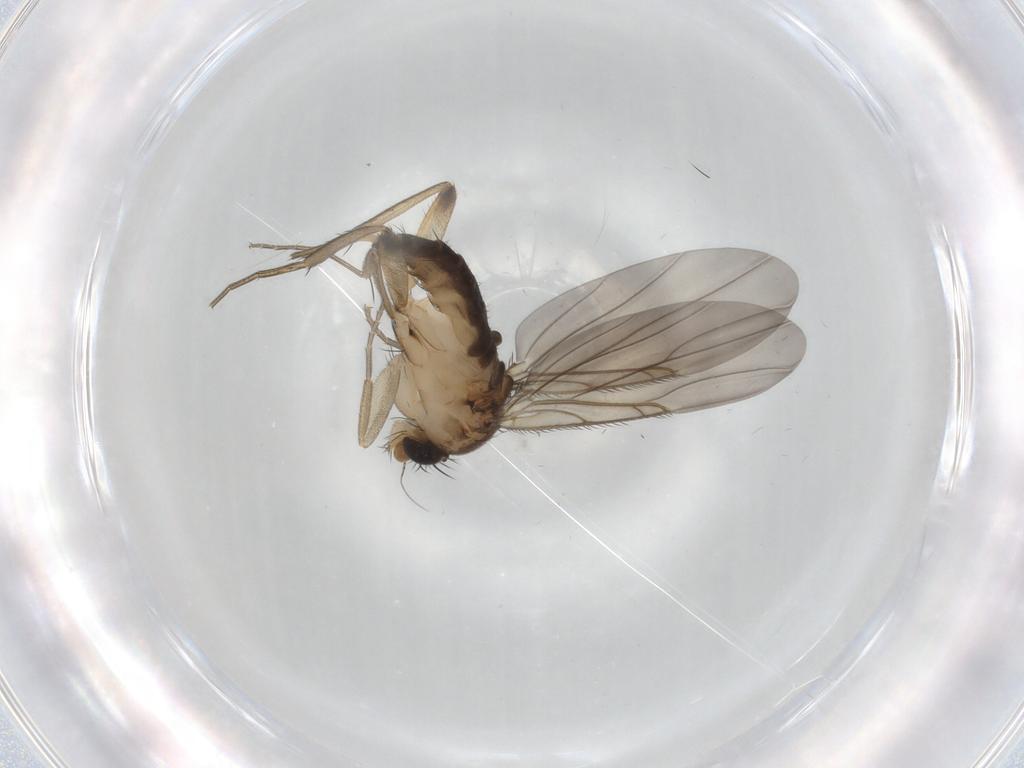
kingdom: Animalia
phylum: Arthropoda
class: Insecta
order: Diptera
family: Phoridae
